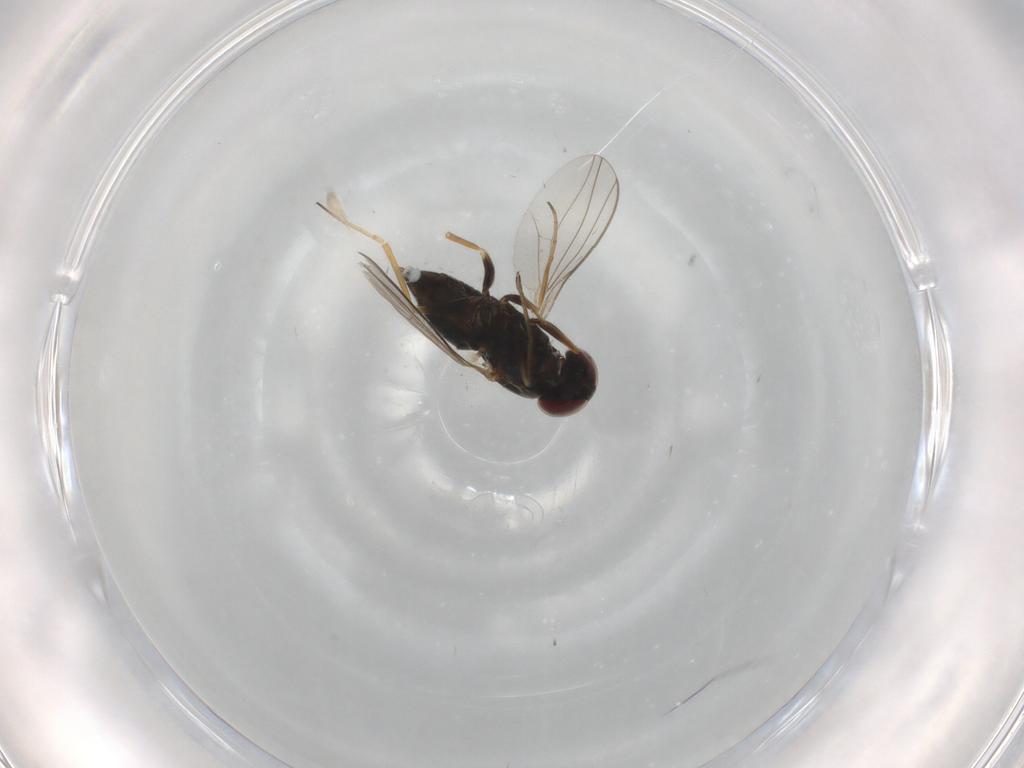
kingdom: Animalia
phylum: Arthropoda
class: Insecta
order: Diptera
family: Dolichopodidae
